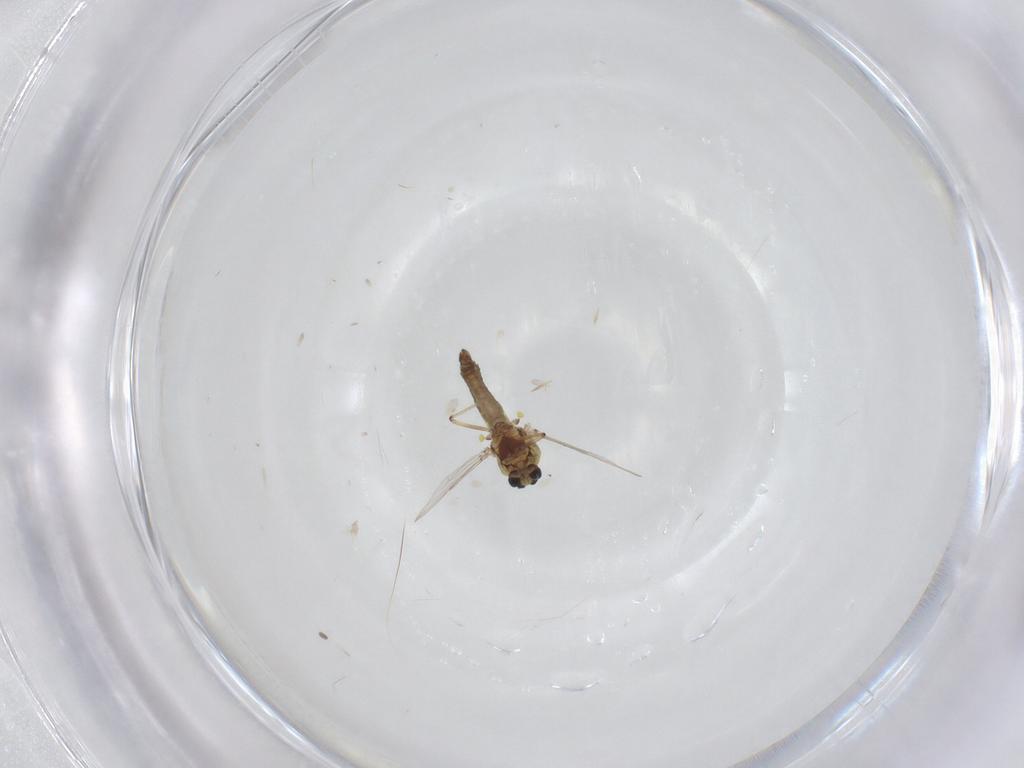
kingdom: Animalia
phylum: Arthropoda
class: Insecta
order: Diptera
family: Ceratopogonidae
